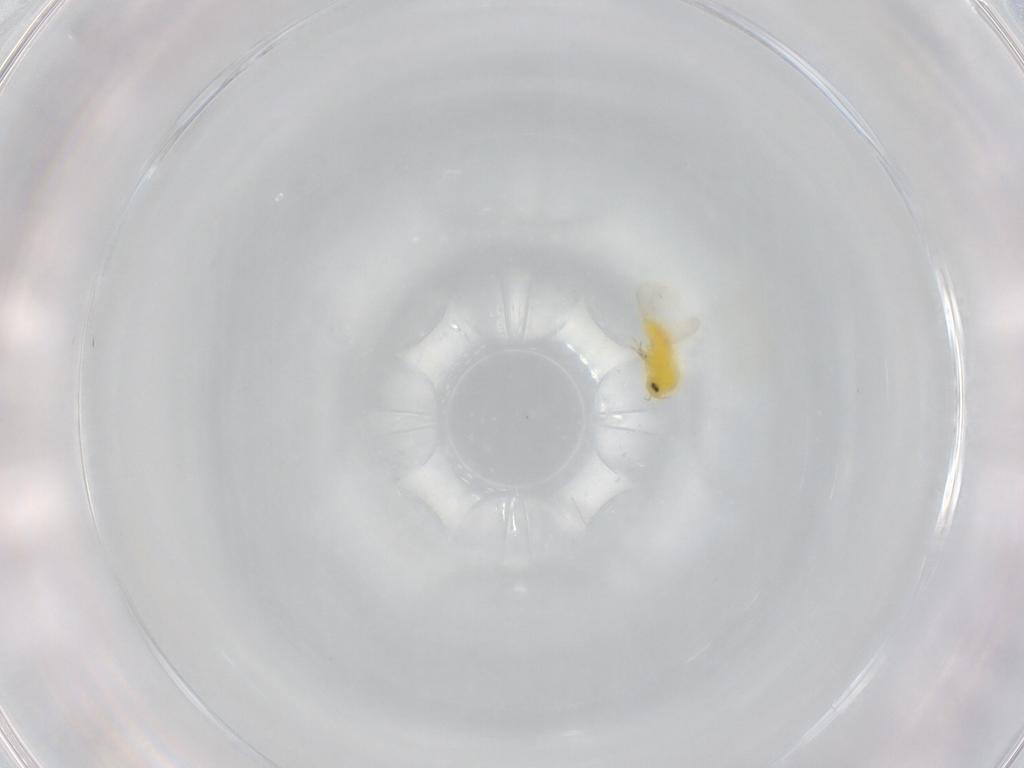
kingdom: Animalia
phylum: Arthropoda
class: Insecta
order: Hemiptera
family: Aleyrodidae
